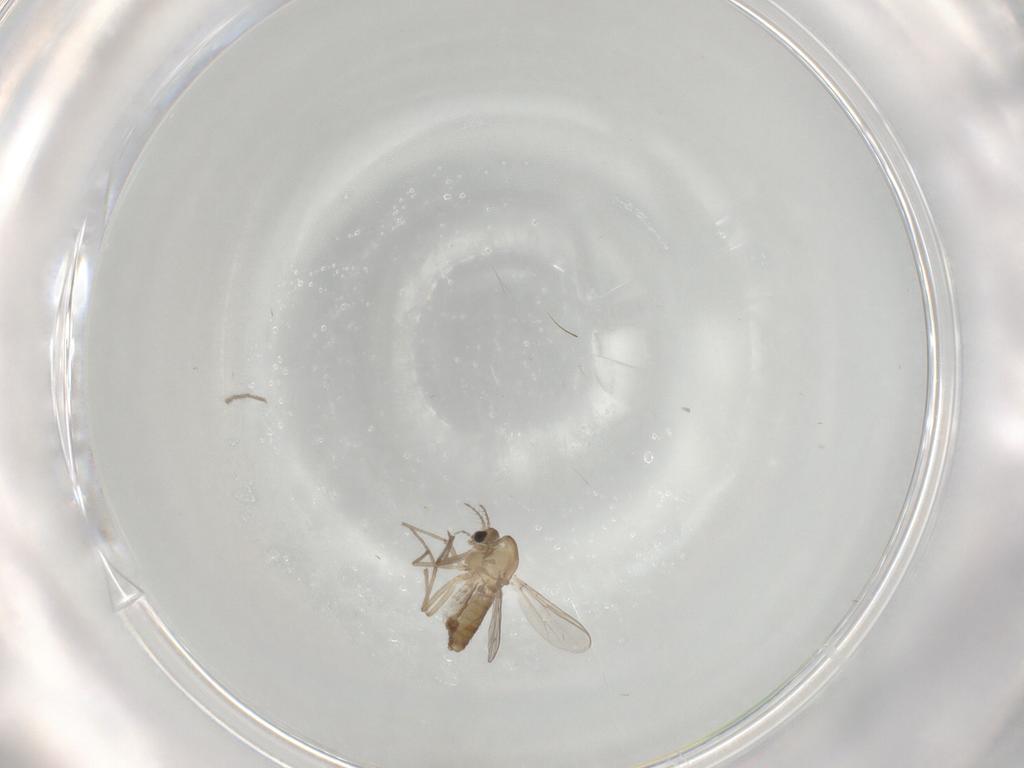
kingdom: Animalia
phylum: Arthropoda
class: Insecta
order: Diptera
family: Chironomidae
